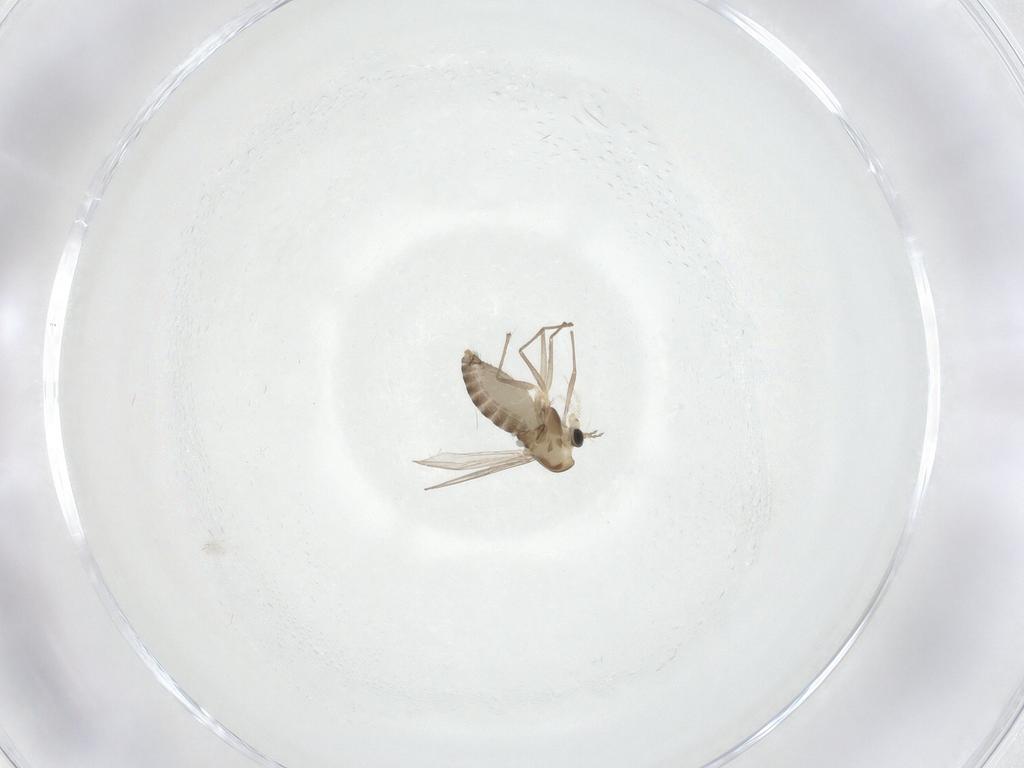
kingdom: Animalia
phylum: Arthropoda
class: Insecta
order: Diptera
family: Chironomidae
